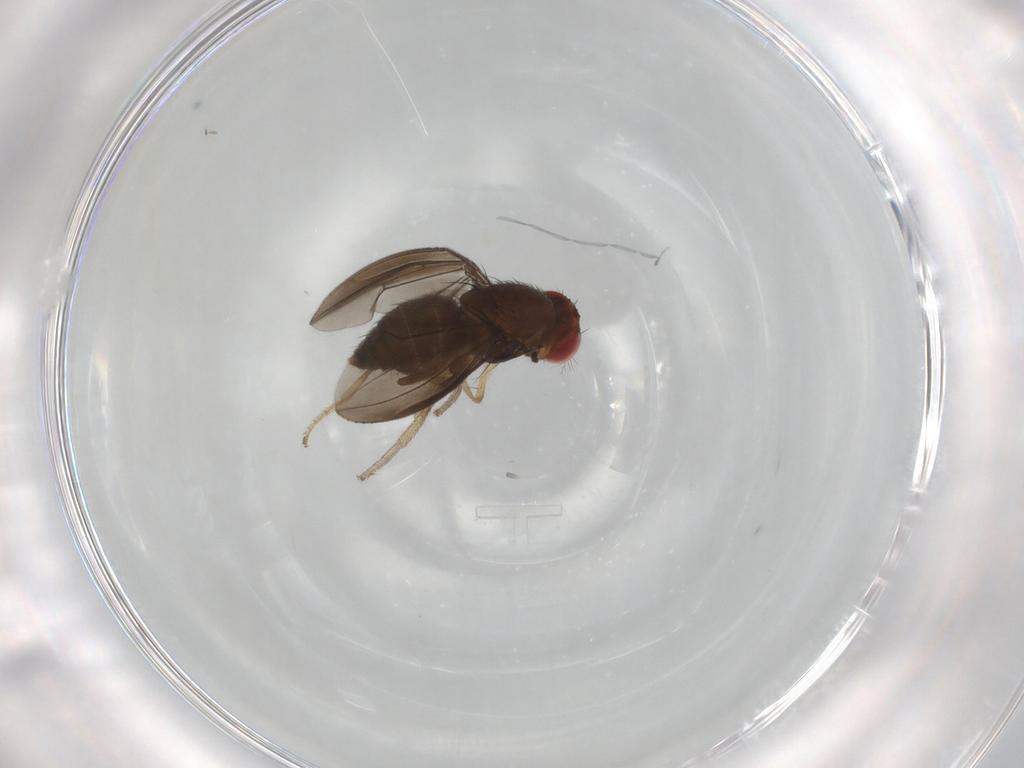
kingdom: Animalia
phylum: Arthropoda
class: Insecta
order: Diptera
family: Drosophilidae
